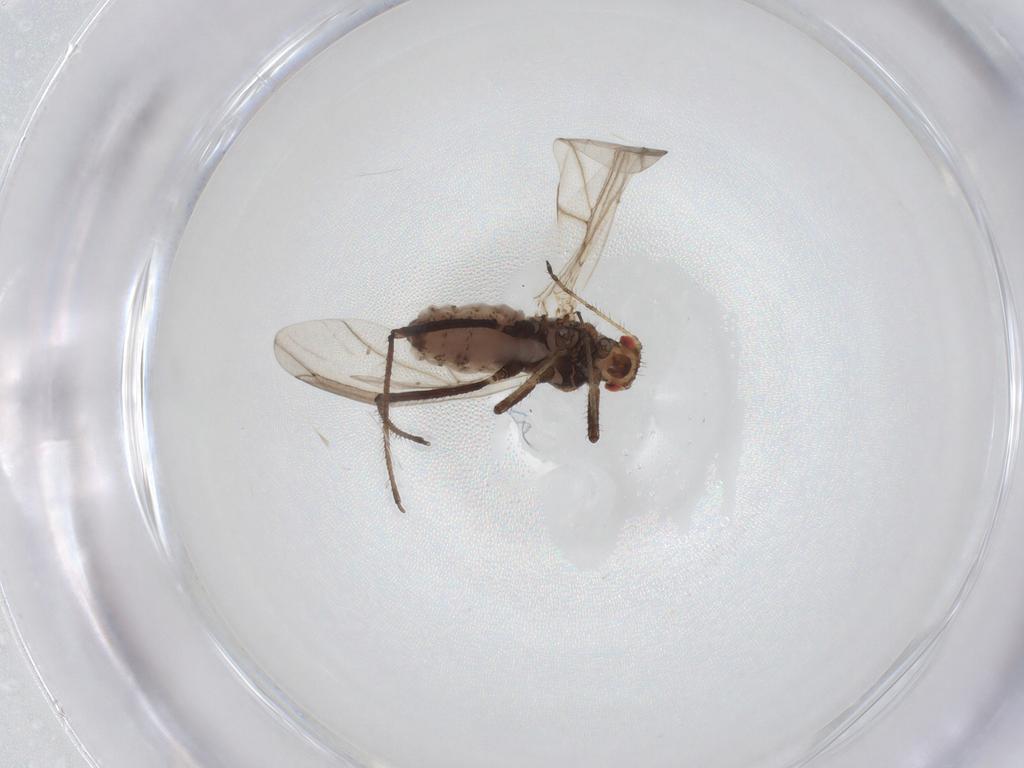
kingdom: Animalia
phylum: Arthropoda
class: Insecta
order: Hemiptera
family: Aphididae
